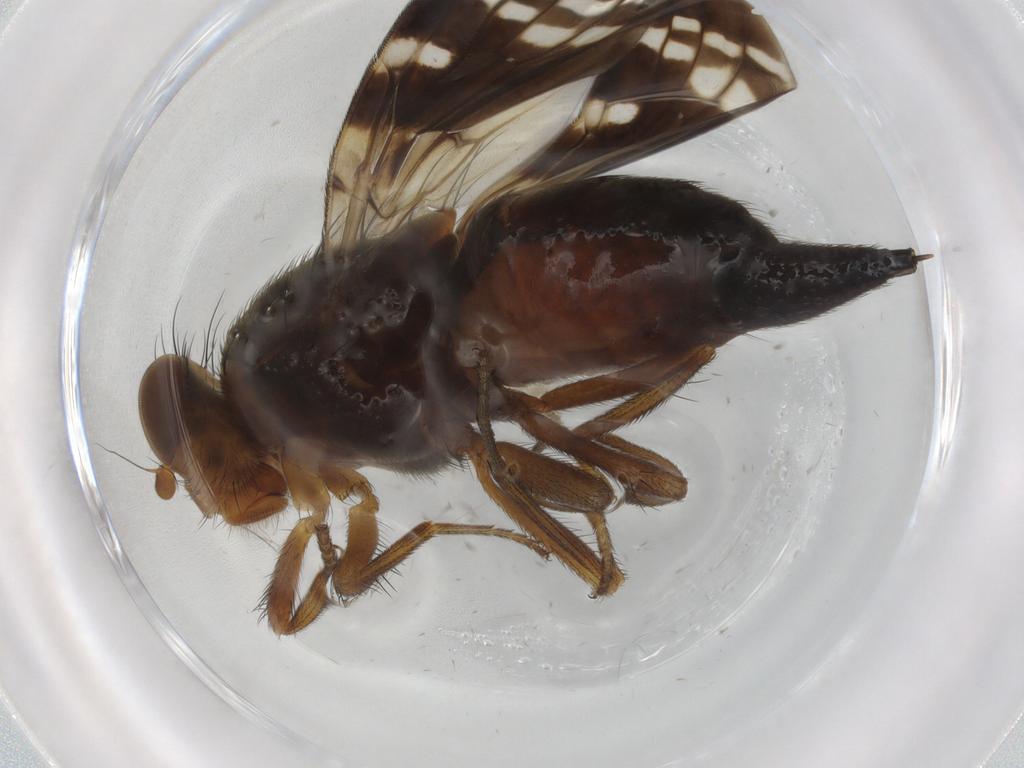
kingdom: Animalia
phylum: Arthropoda
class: Insecta
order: Diptera
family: Ulidiidae
